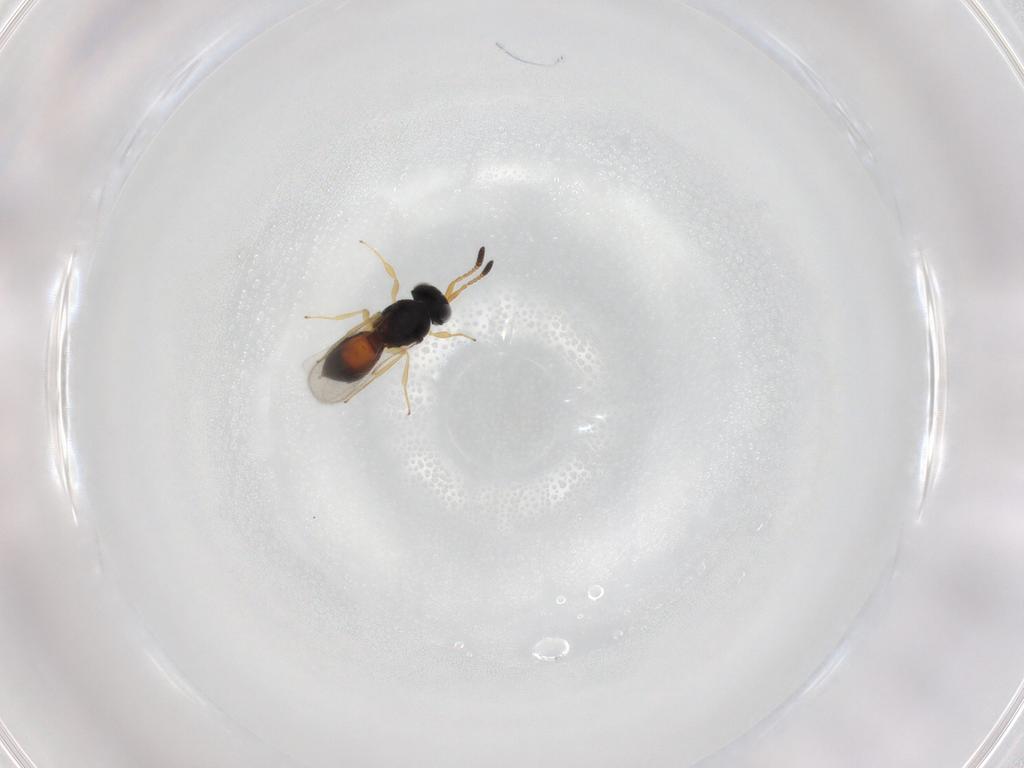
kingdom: Animalia
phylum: Arthropoda
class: Insecta
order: Hymenoptera
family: Scelionidae
